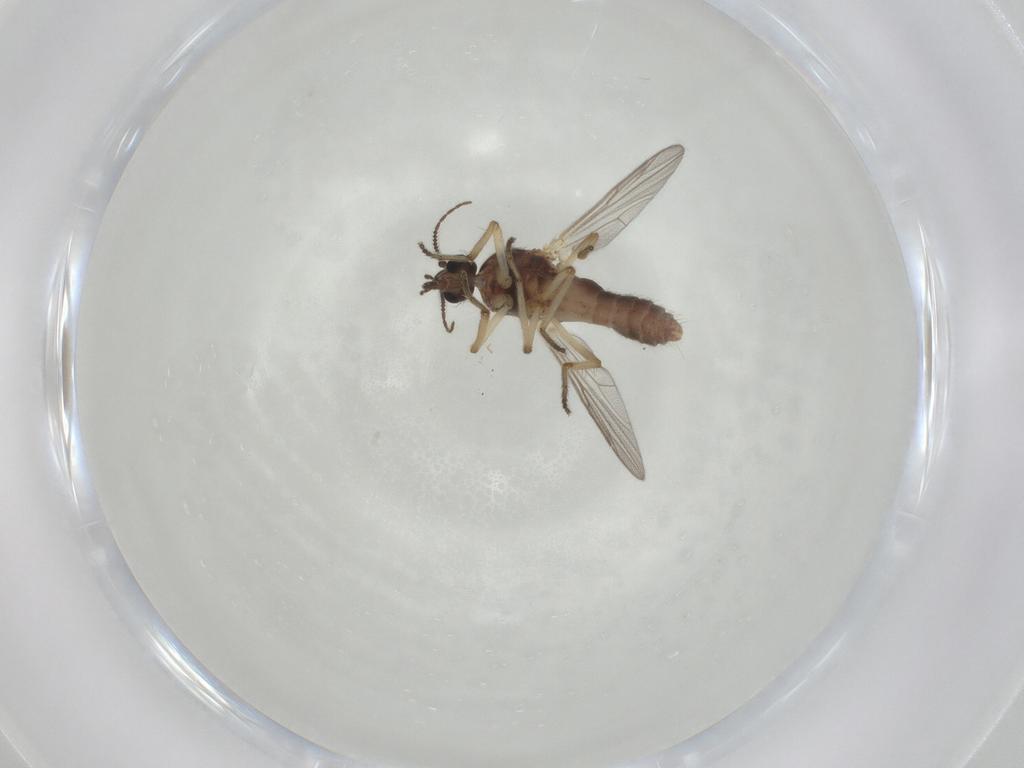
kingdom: Animalia
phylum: Arthropoda
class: Insecta
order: Diptera
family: Ceratopogonidae
